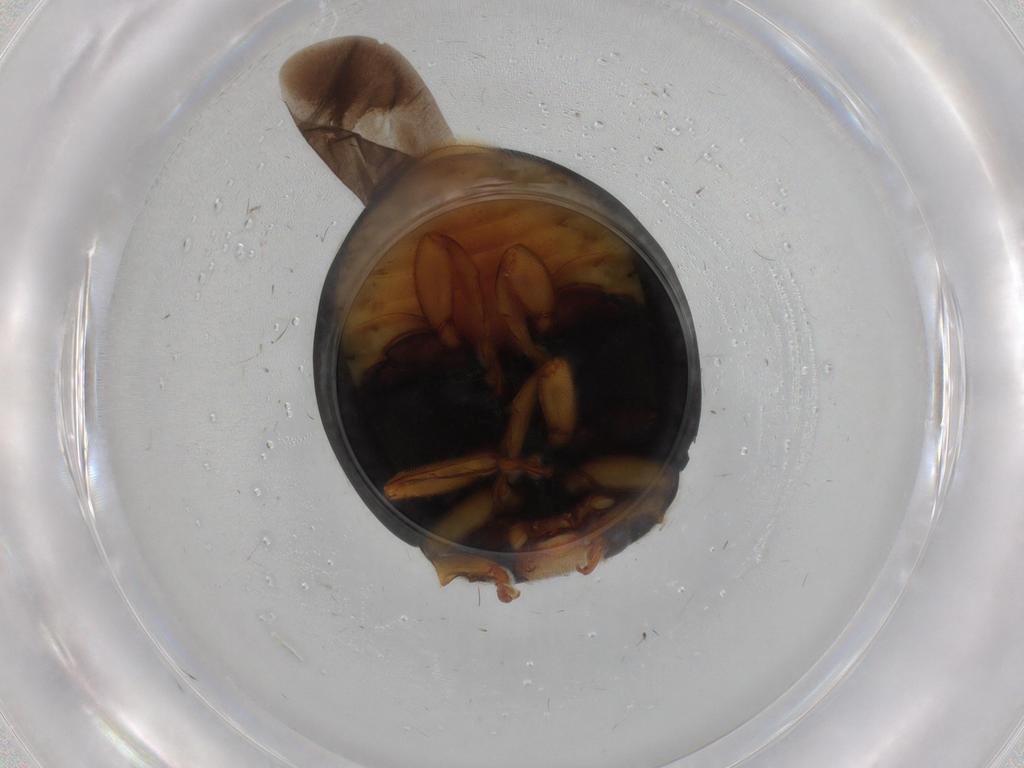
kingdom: Animalia
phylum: Arthropoda
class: Insecta
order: Coleoptera
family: Coccinellidae
